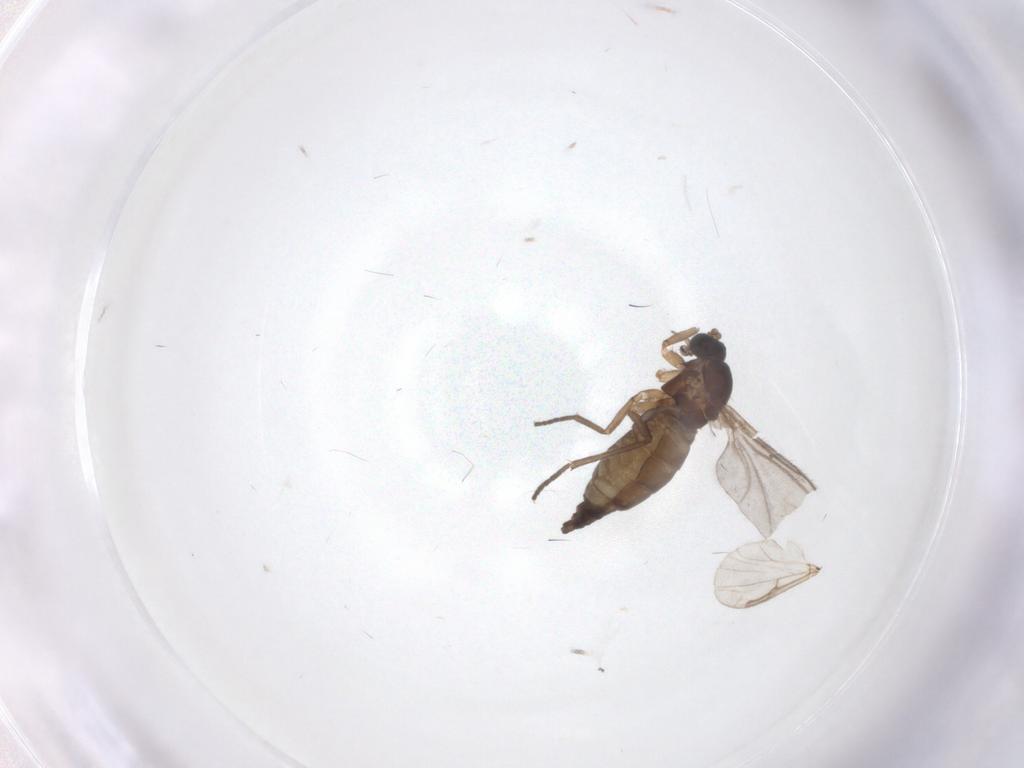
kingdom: Animalia
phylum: Arthropoda
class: Insecta
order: Diptera
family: Sciaridae
